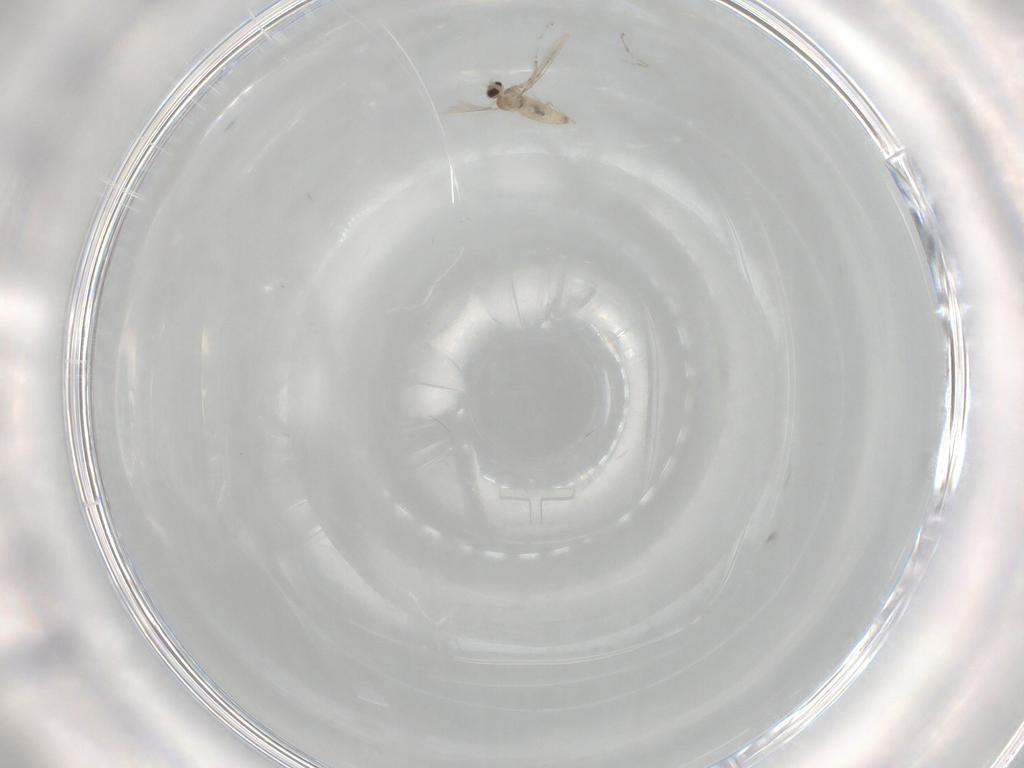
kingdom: Animalia
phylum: Arthropoda
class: Insecta
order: Diptera
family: Cecidomyiidae
